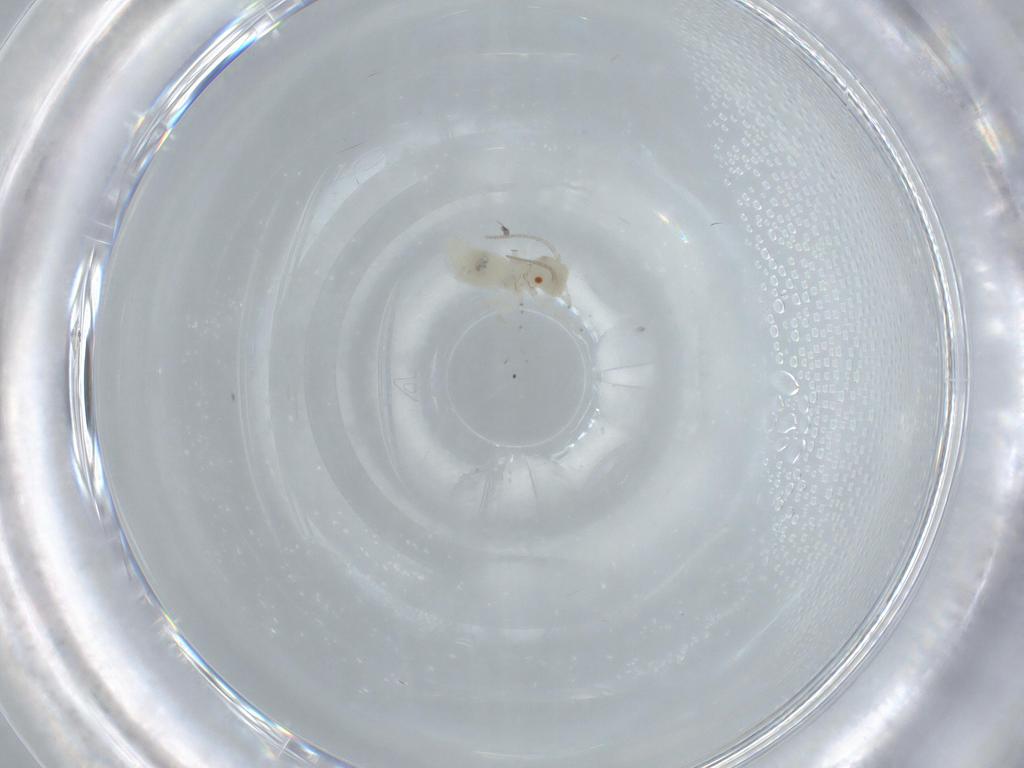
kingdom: Animalia
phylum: Arthropoda
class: Insecta
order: Psocodea
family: Caeciliusidae
